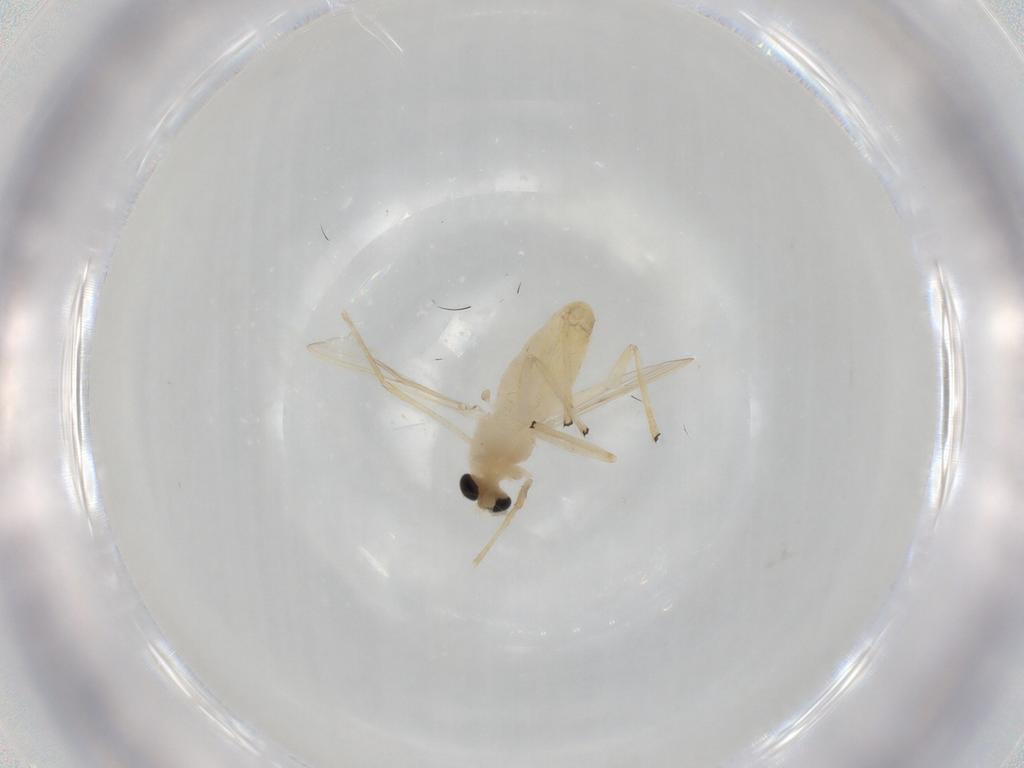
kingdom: Animalia
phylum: Arthropoda
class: Insecta
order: Diptera
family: Chironomidae
